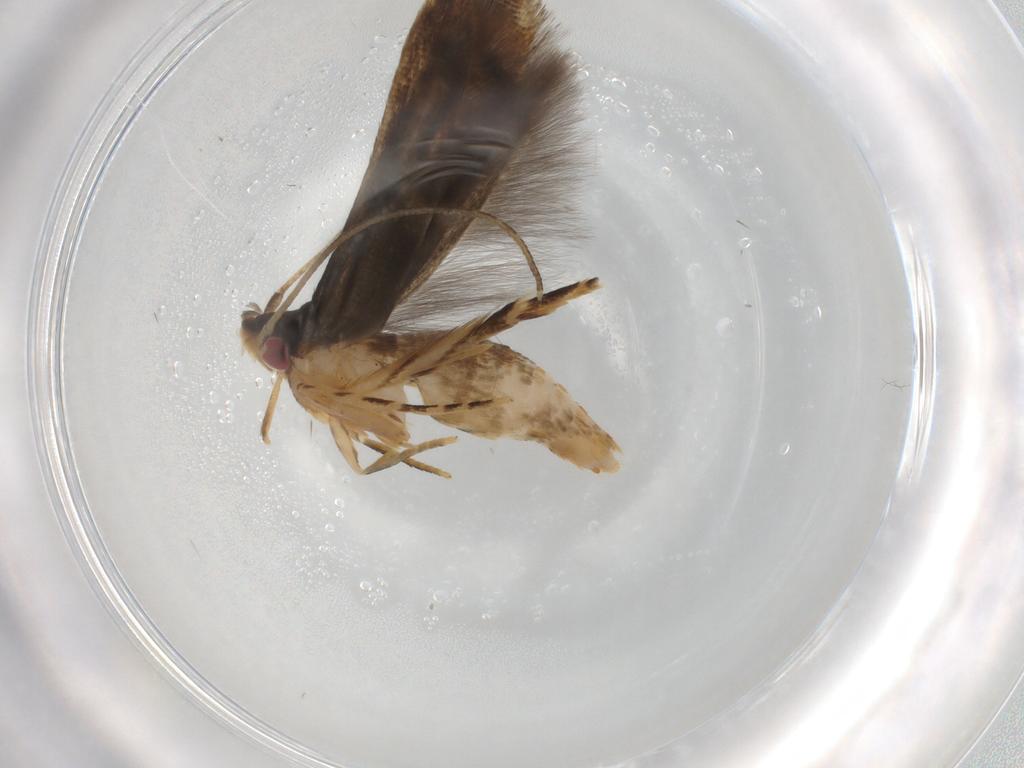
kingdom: Animalia
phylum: Arthropoda
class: Insecta
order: Lepidoptera
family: Momphidae
